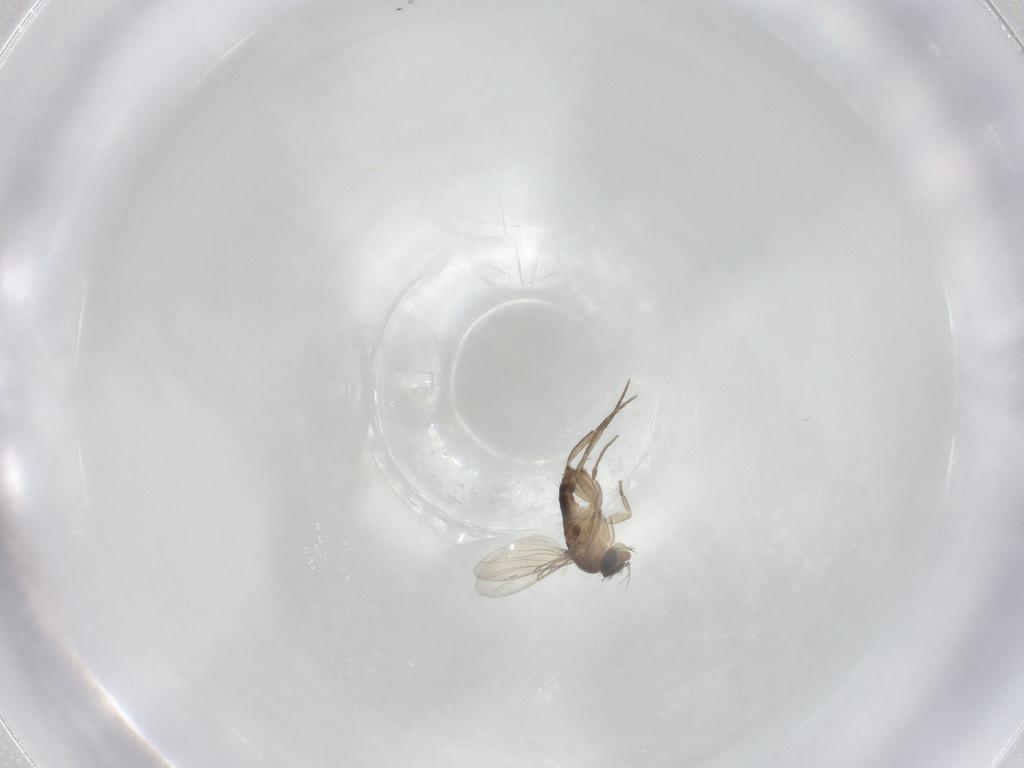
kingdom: Animalia
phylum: Arthropoda
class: Insecta
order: Diptera
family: Phoridae
